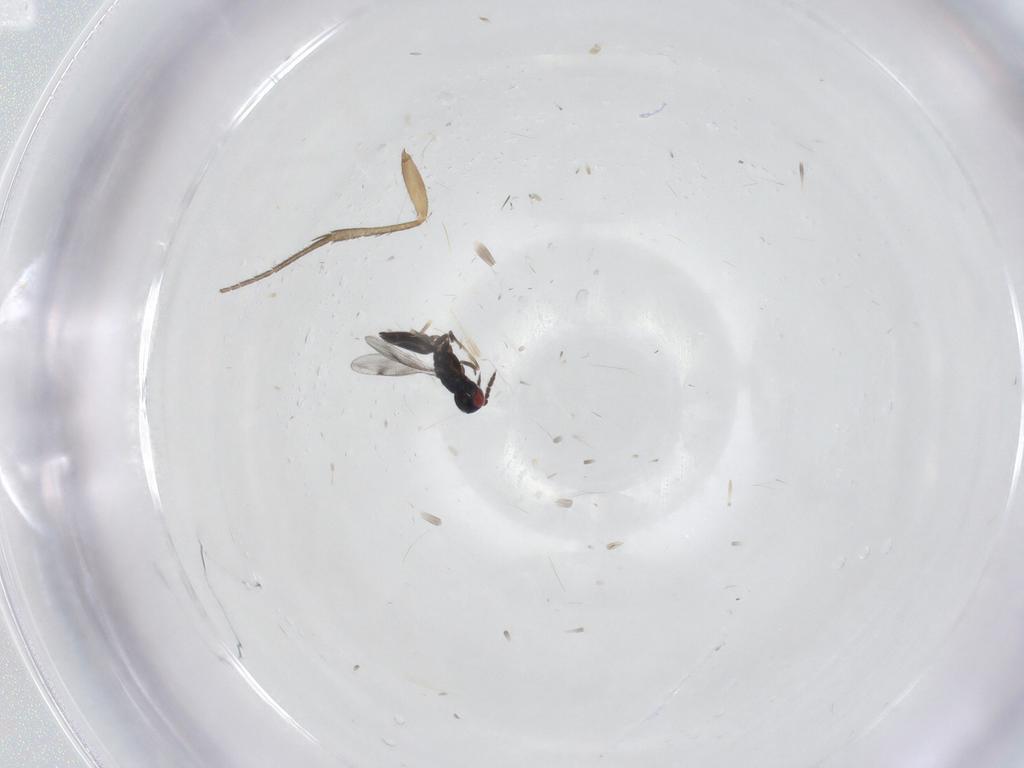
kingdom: Animalia
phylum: Arthropoda
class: Insecta
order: Hymenoptera
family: Eulophidae
